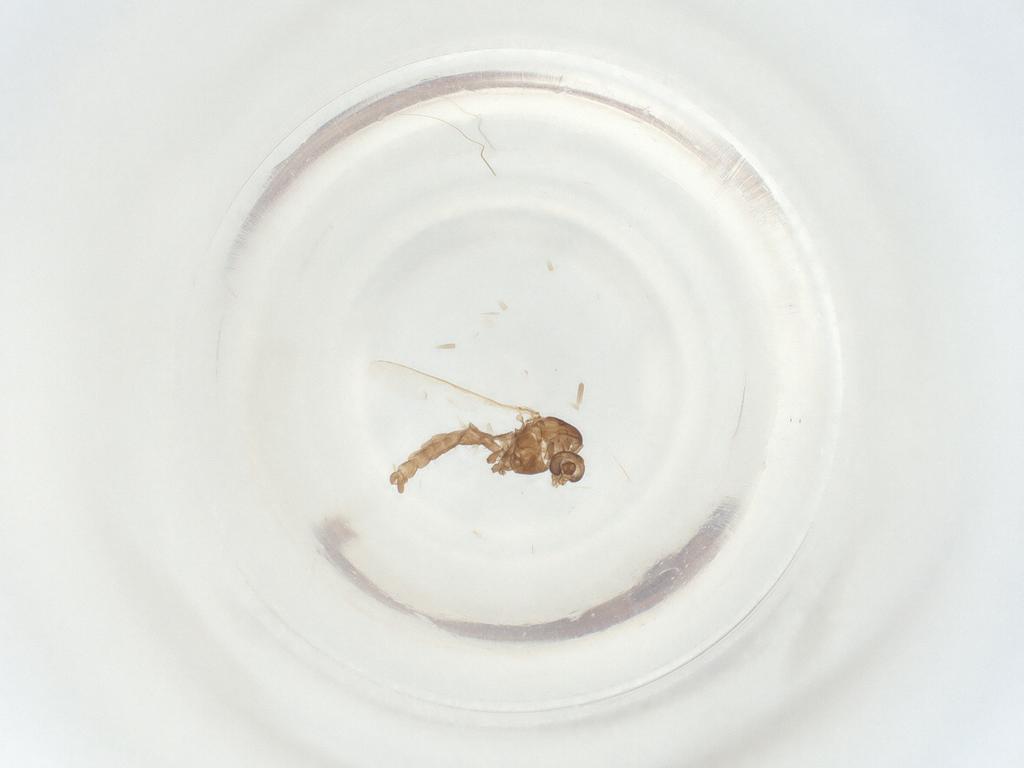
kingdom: Animalia
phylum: Arthropoda
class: Insecta
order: Diptera
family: Chironomidae
